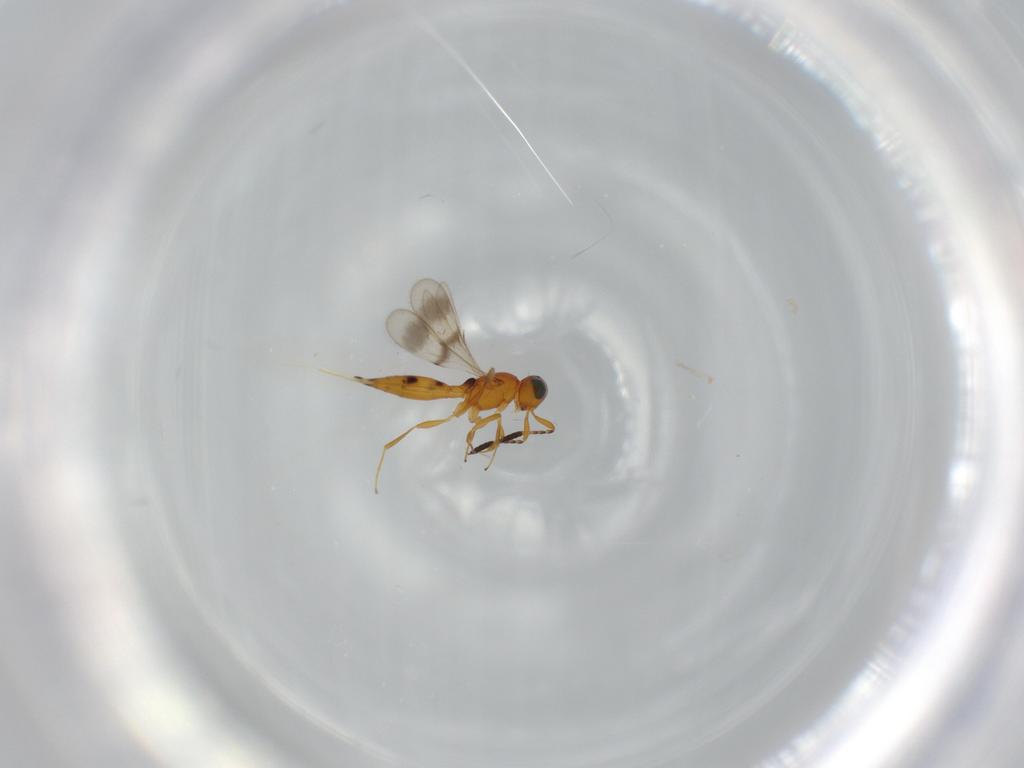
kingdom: Animalia
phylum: Arthropoda
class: Insecta
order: Hymenoptera
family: Scelionidae
